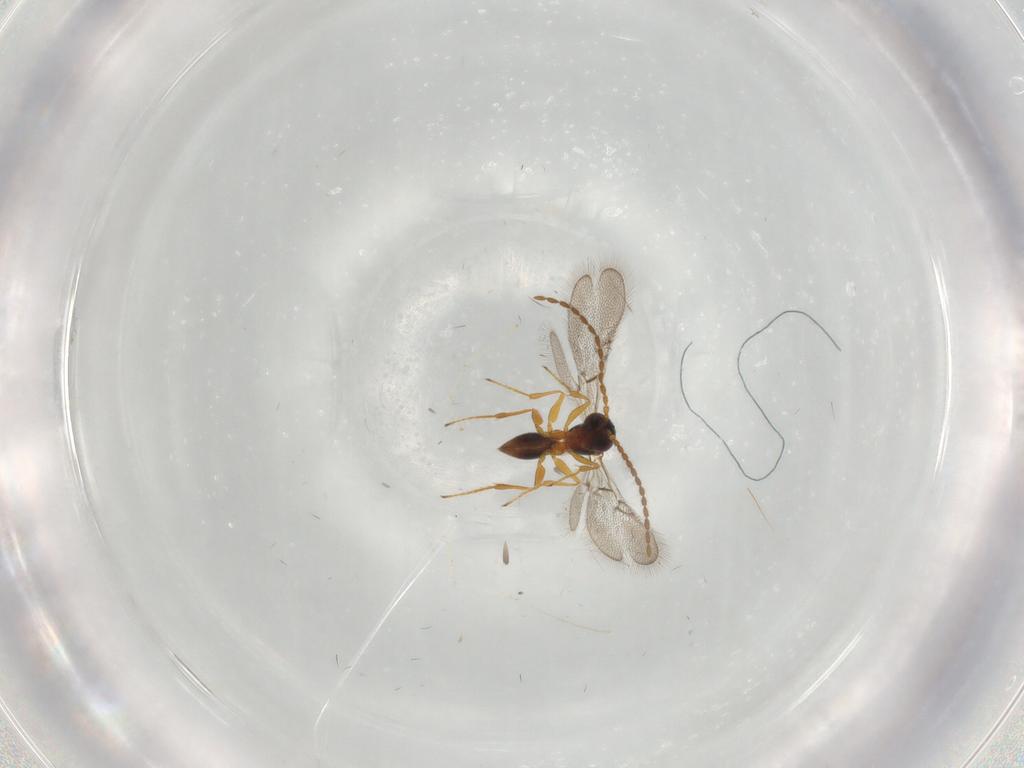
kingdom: Animalia
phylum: Arthropoda
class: Insecta
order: Hymenoptera
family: Figitidae
